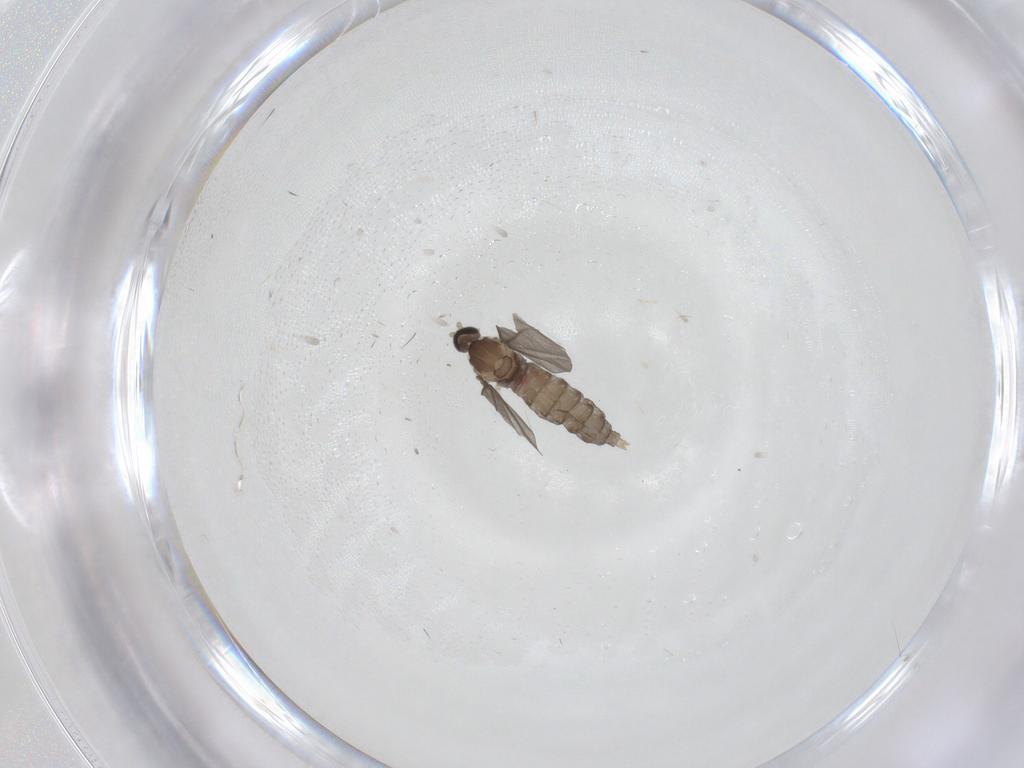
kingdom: Animalia
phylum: Arthropoda
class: Insecta
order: Diptera
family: Cecidomyiidae
